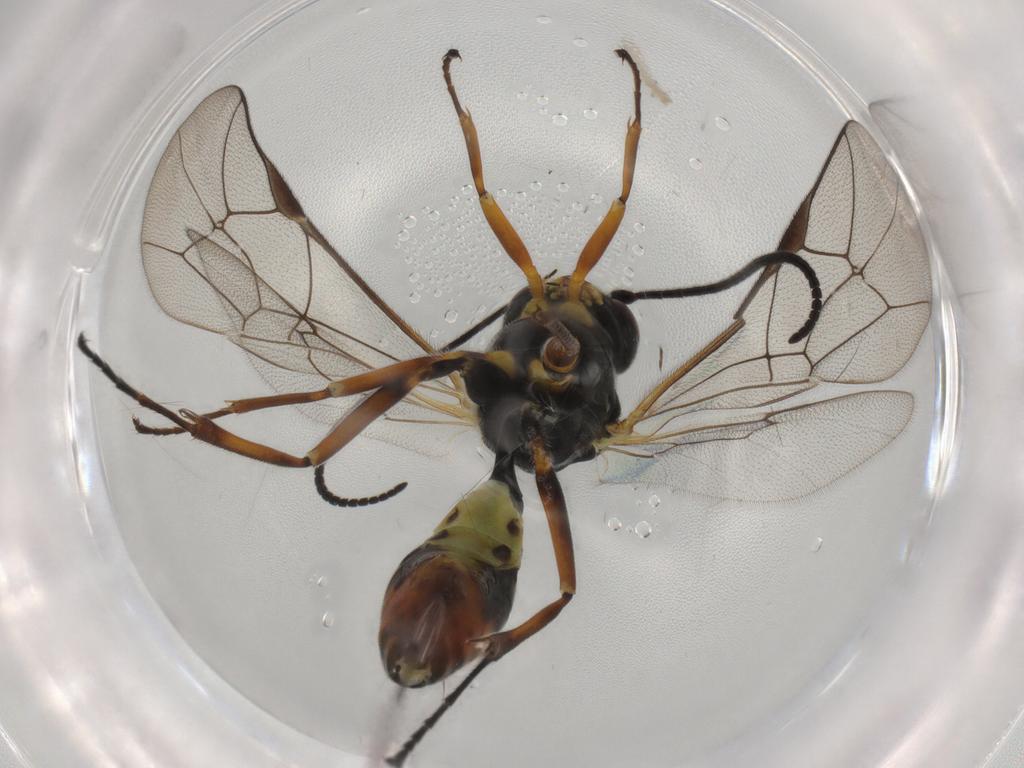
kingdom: Animalia
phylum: Arthropoda
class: Insecta
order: Hymenoptera
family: Ichneumonidae
